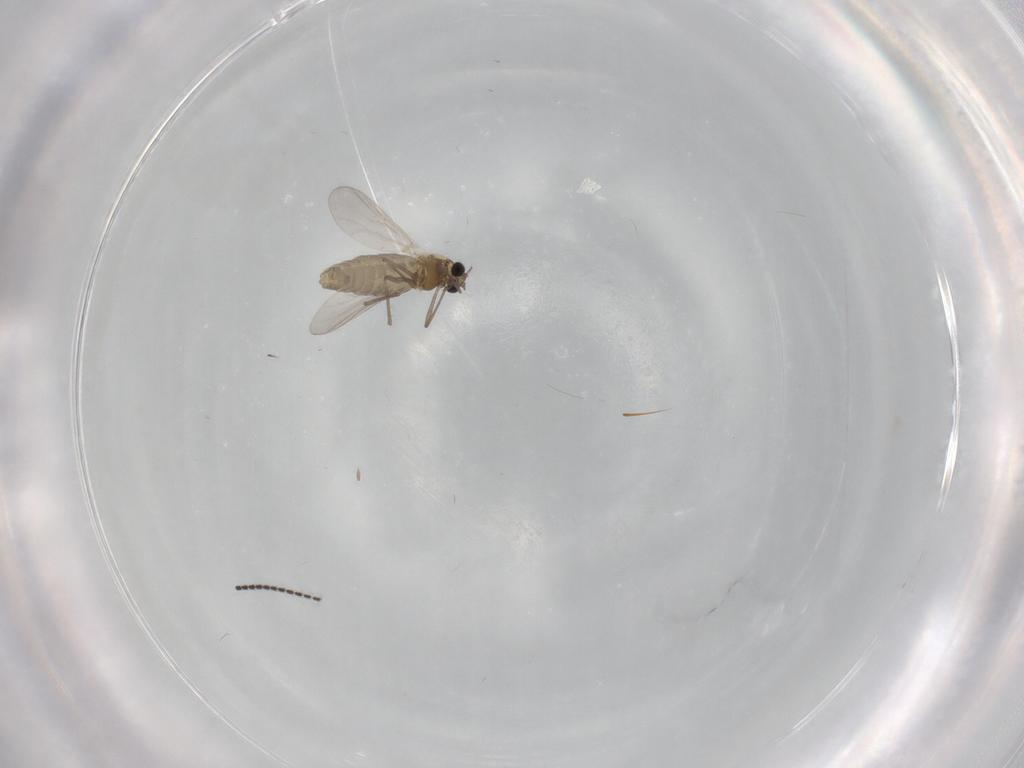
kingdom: Animalia
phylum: Arthropoda
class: Insecta
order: Diptera
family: Chironomidae
